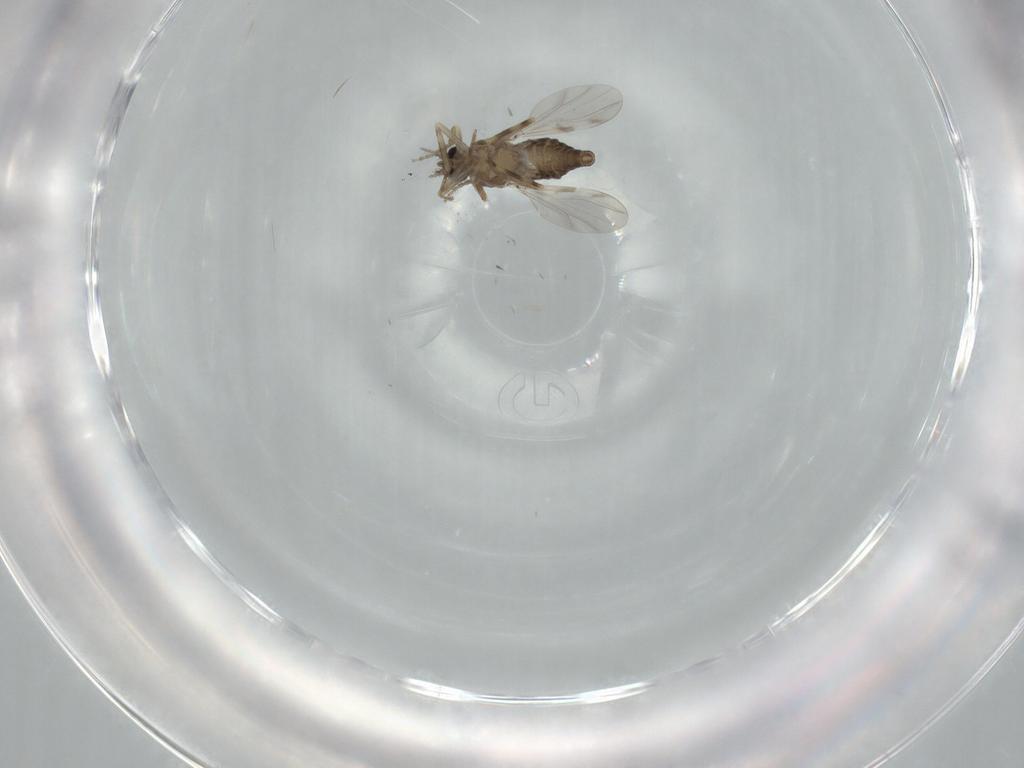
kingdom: Animalia
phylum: Arthropoda
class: Insecta
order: Diptera
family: Ceratopogonidae
